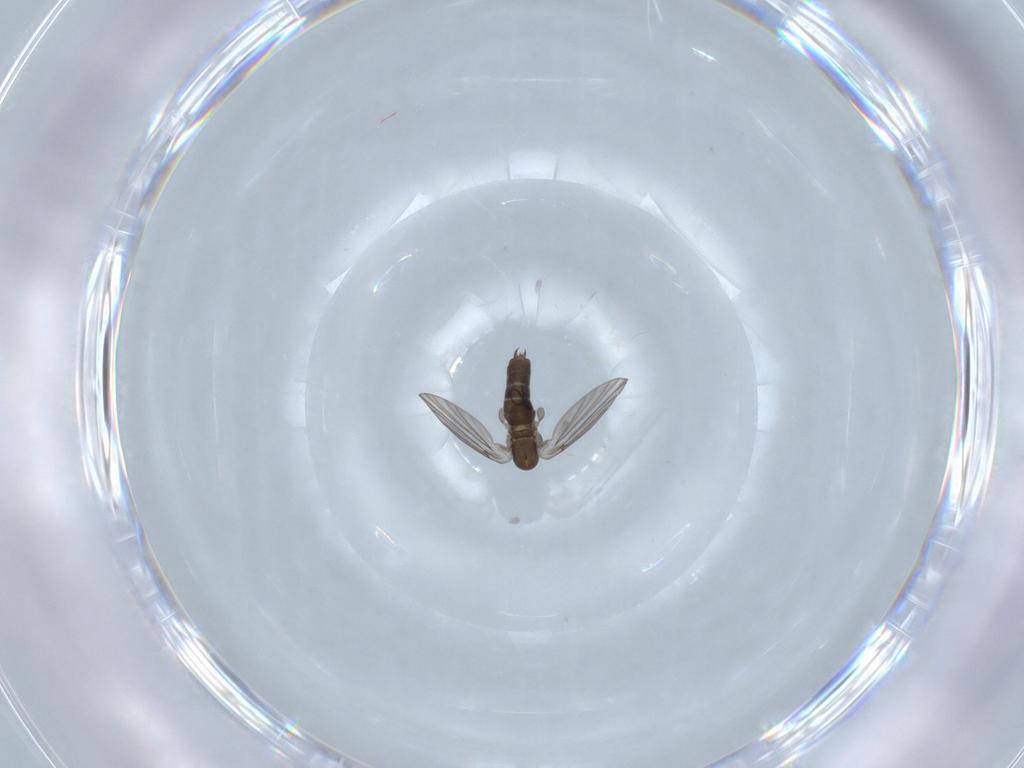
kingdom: Animalia
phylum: Arthropoda
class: Insecta
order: Diptera
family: Psychodidae
